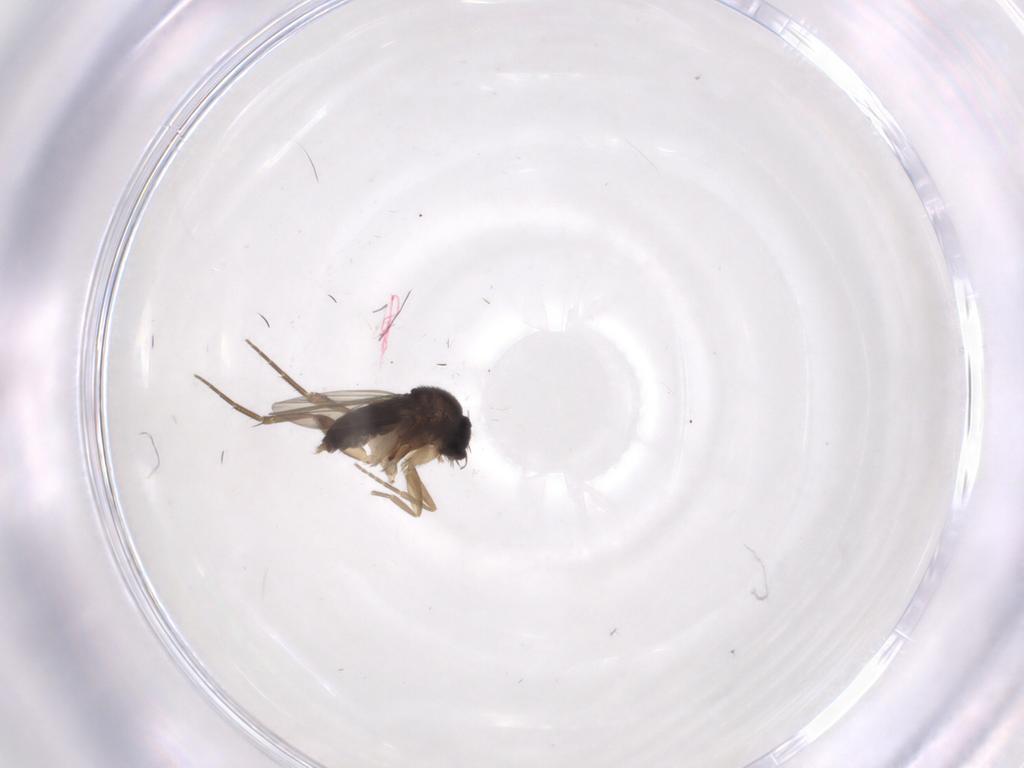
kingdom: Animalia
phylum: Arthropoda
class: Insecta
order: Diptera
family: Phoridae
